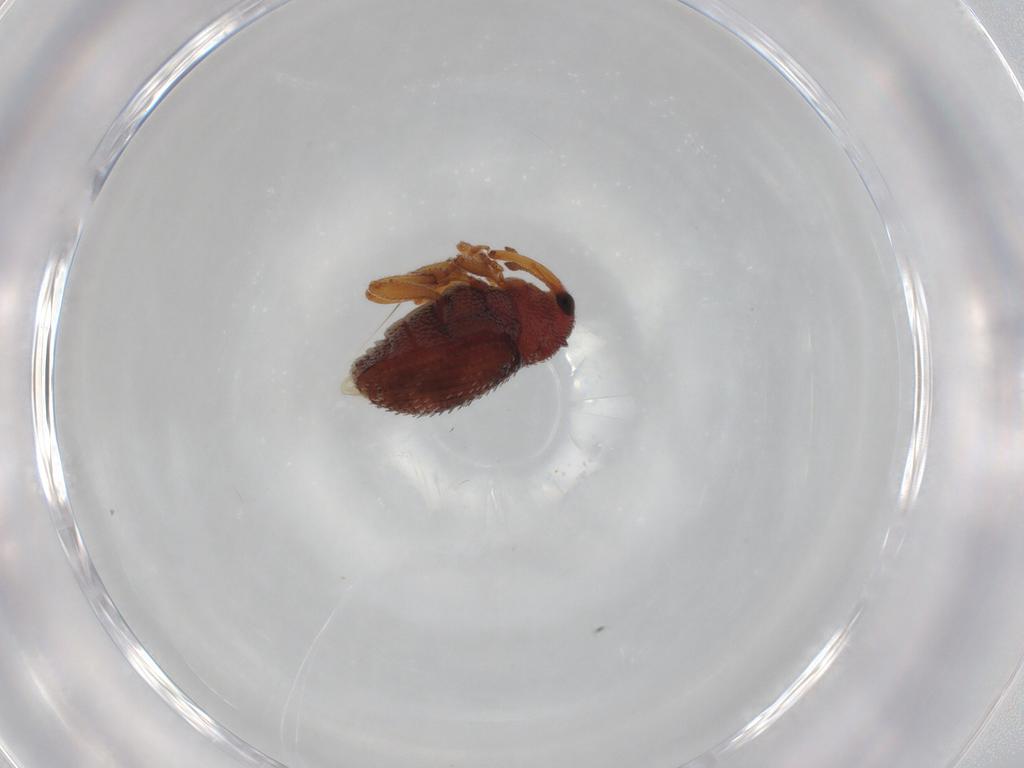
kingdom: Animalia
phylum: Arthropoda
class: Insecta
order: Coleoptera
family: Curculionidae
